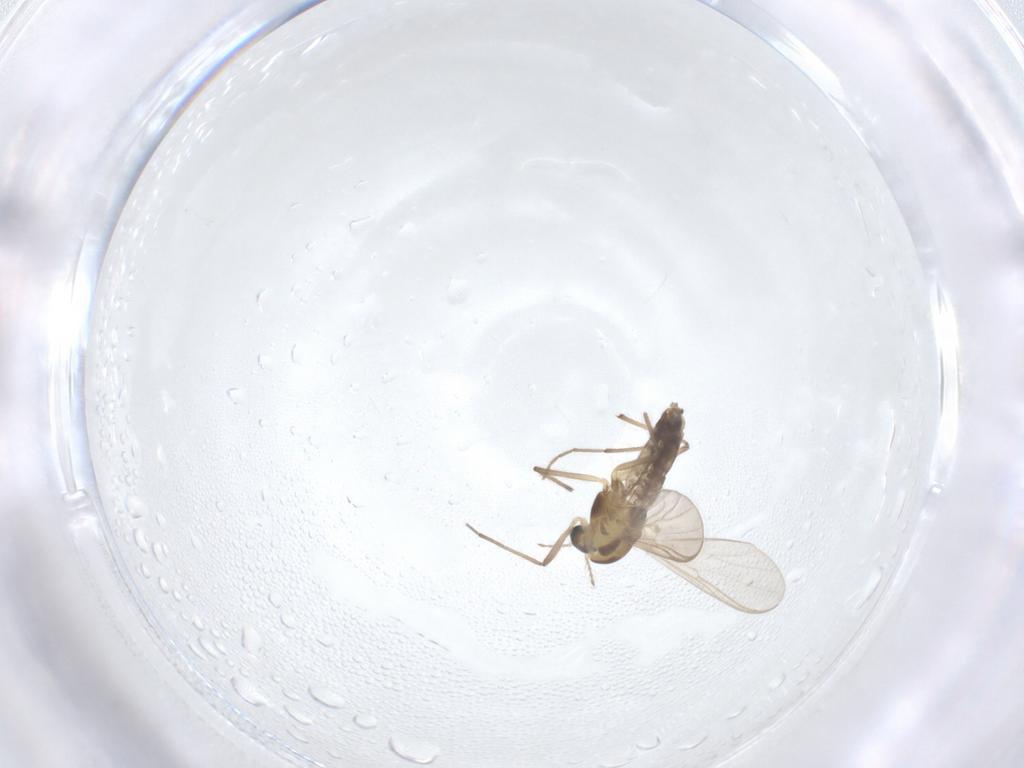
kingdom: Animalia
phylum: Arthropoda
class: Insecta
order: Diptera
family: Chironomidae
